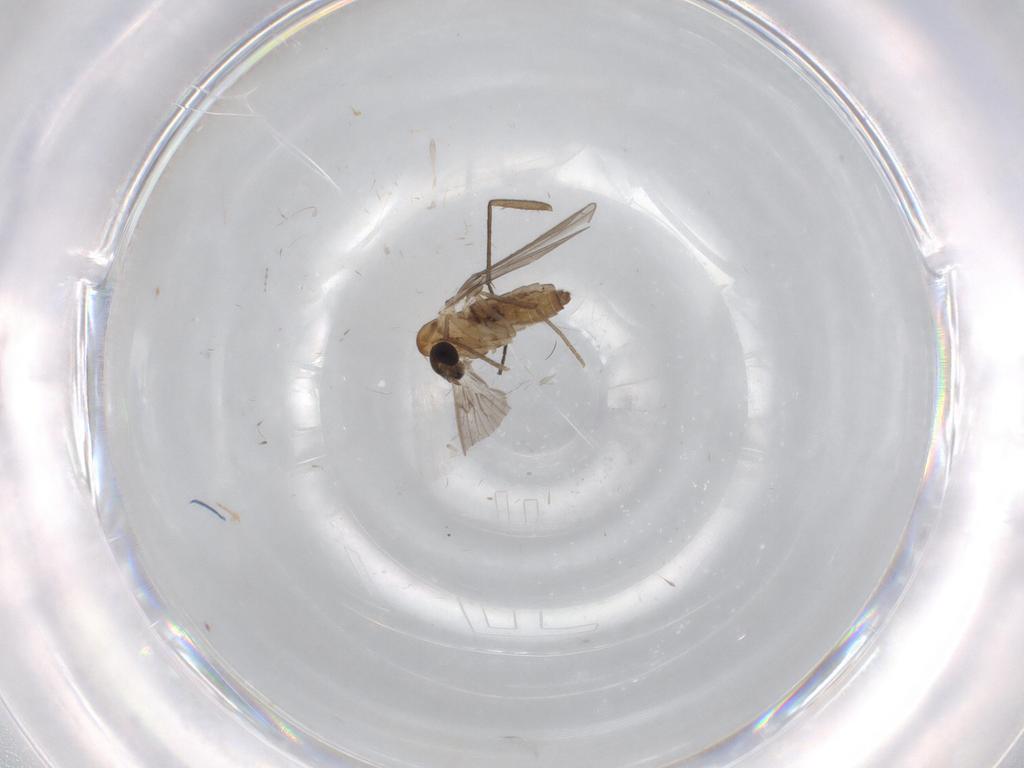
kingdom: Animalia
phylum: Arthropoda
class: Insecta
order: Diptera
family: Sciaridae
